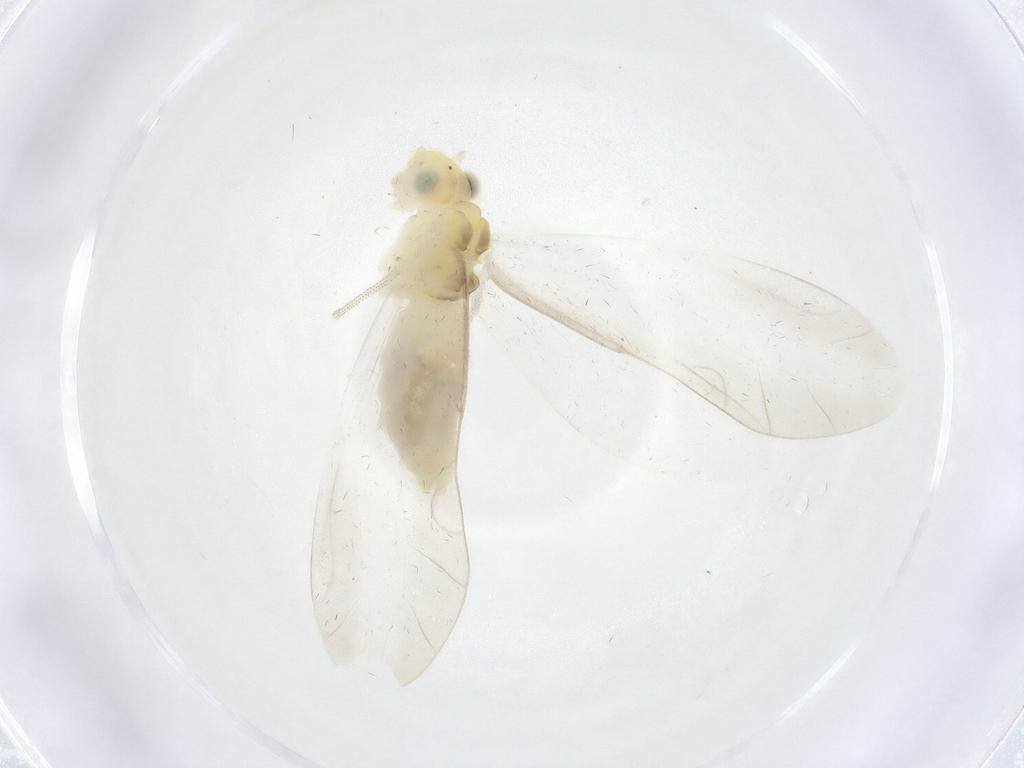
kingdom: Animalia
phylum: Arthropoda
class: Insecta
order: Psocodea
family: Caeciliusidae
